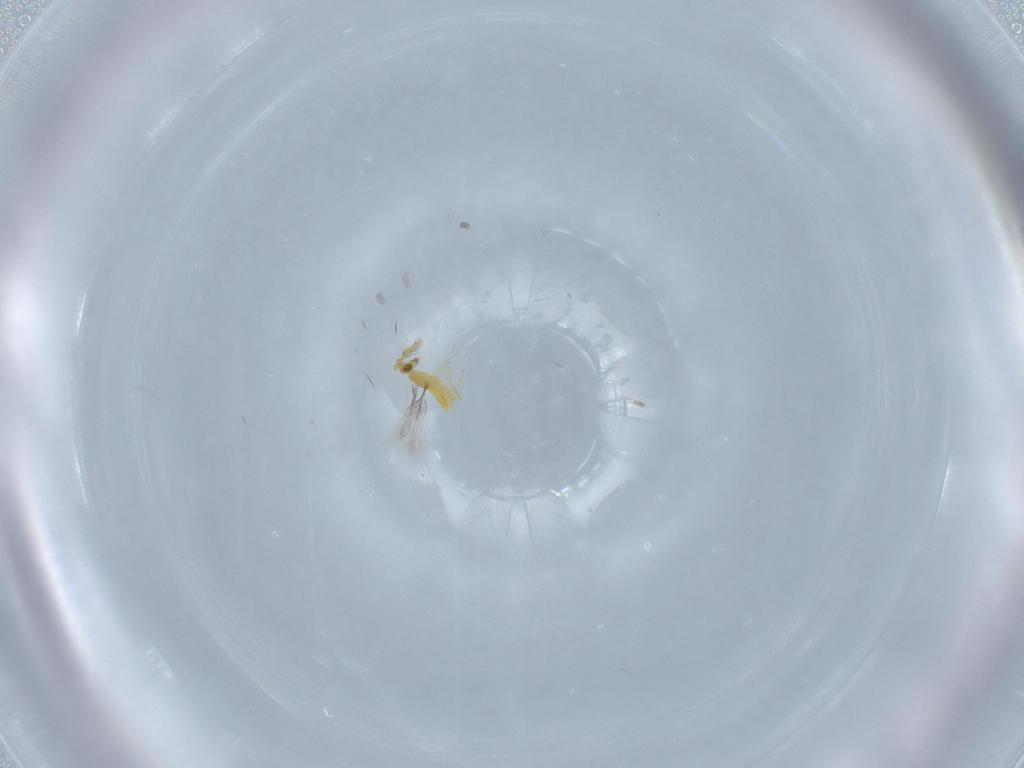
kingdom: Animalia
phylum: Arthropoda
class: Insecta
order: Hymenoptera
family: Aphelinidae
